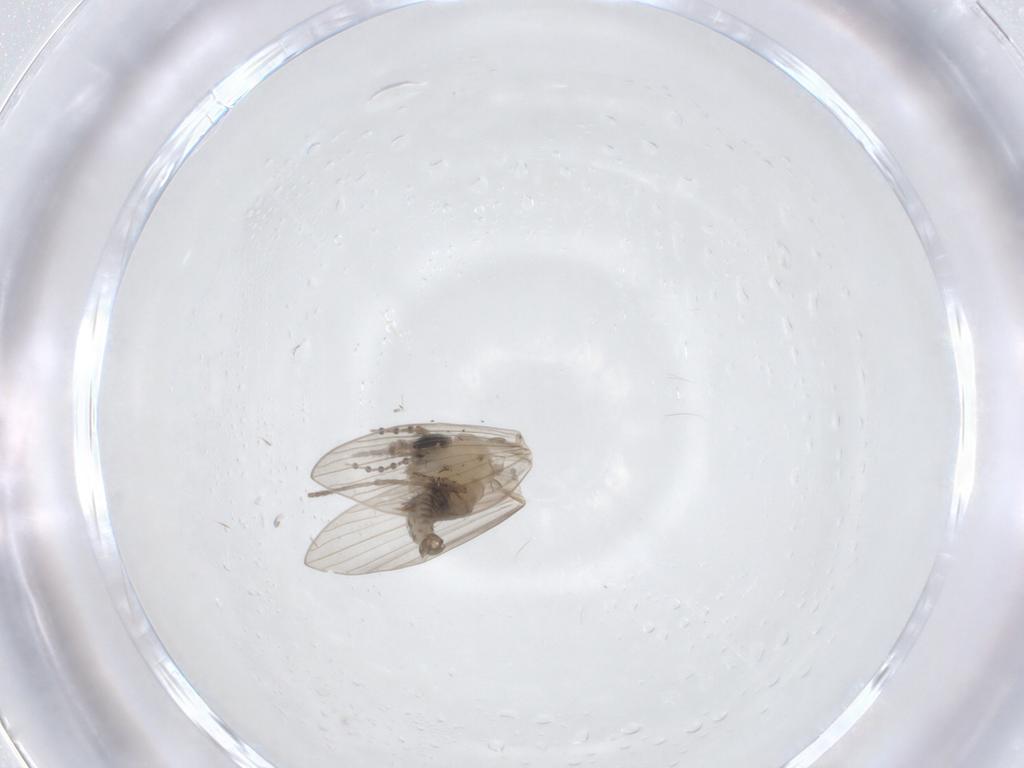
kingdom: Animalia
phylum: Arthropoda
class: Insecta
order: Diptera
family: Psychodidae
